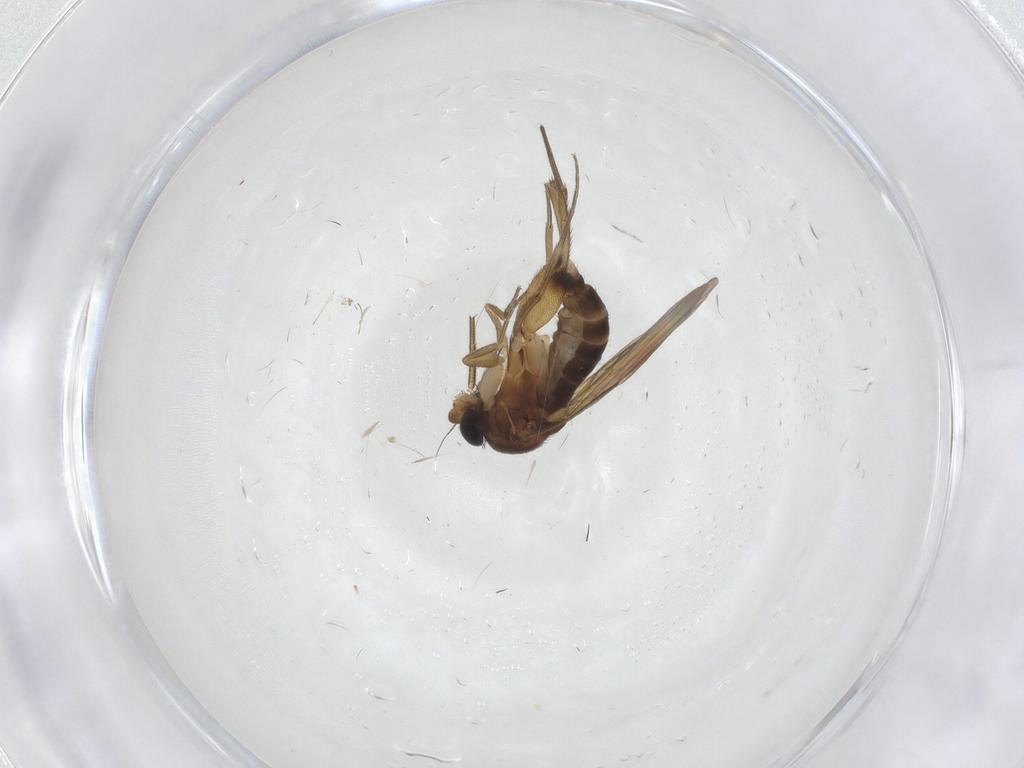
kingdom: Animalia
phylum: Arthropoda
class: Insecta
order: Diptera
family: Phoridae
